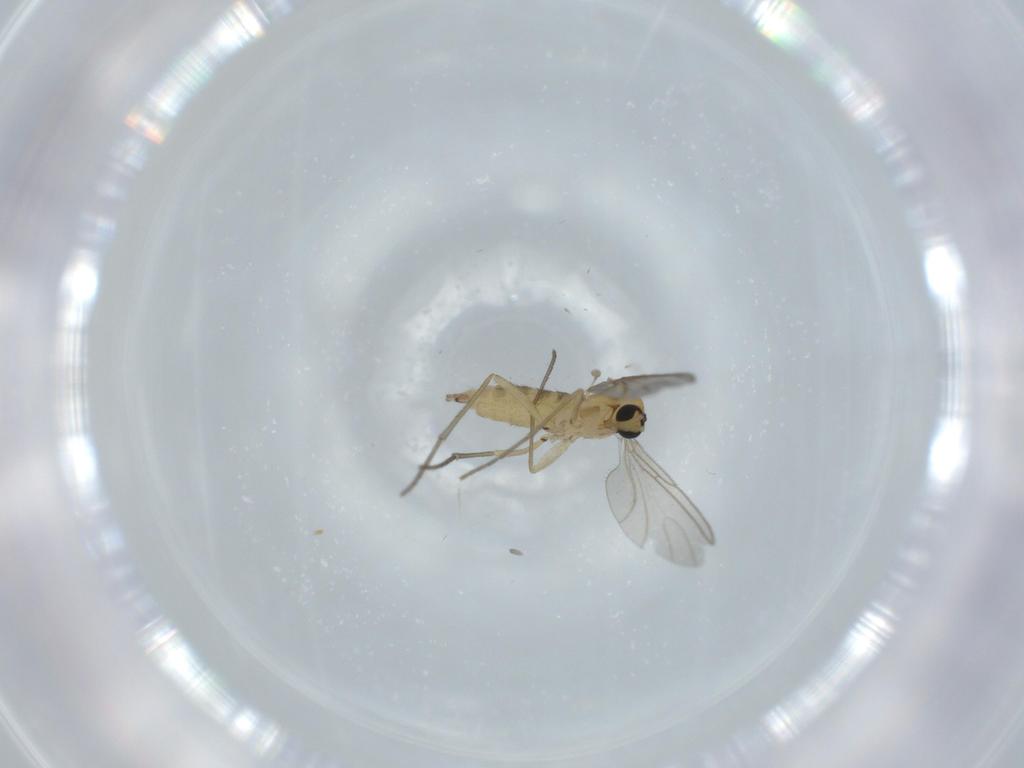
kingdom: Animalia
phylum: Arthropoda
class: Insecta
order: Diptera
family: Sciaridae
